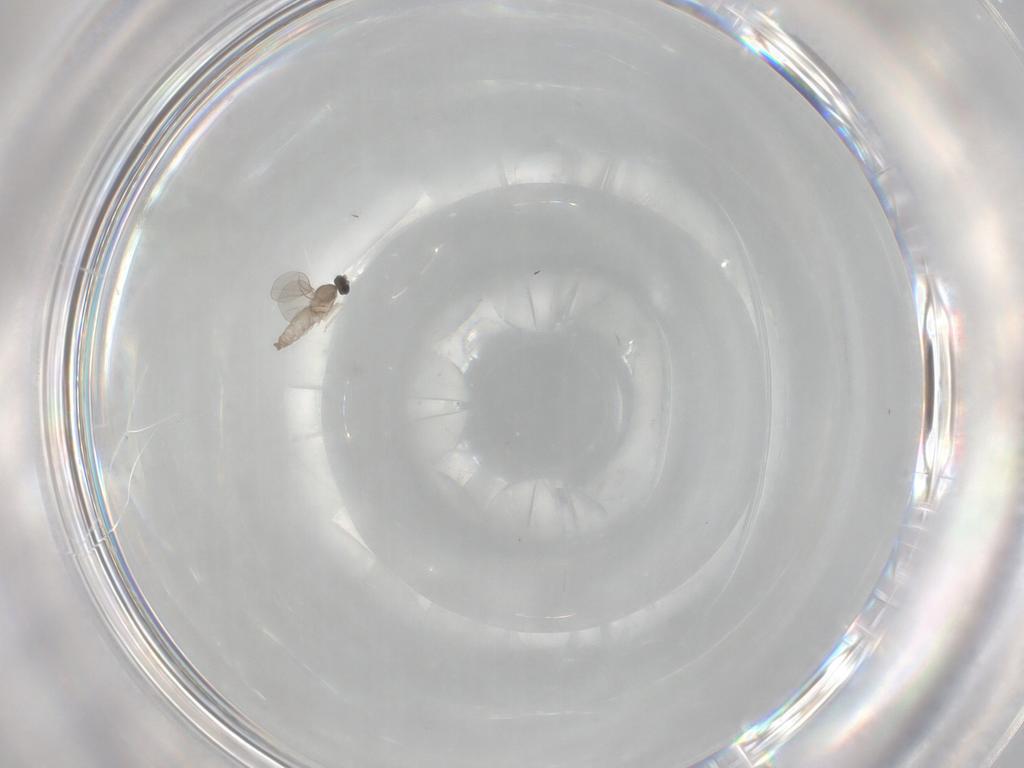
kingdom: Animalia
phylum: Arthropoda
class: Insecta
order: Diptera
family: Cecidomyiidae
